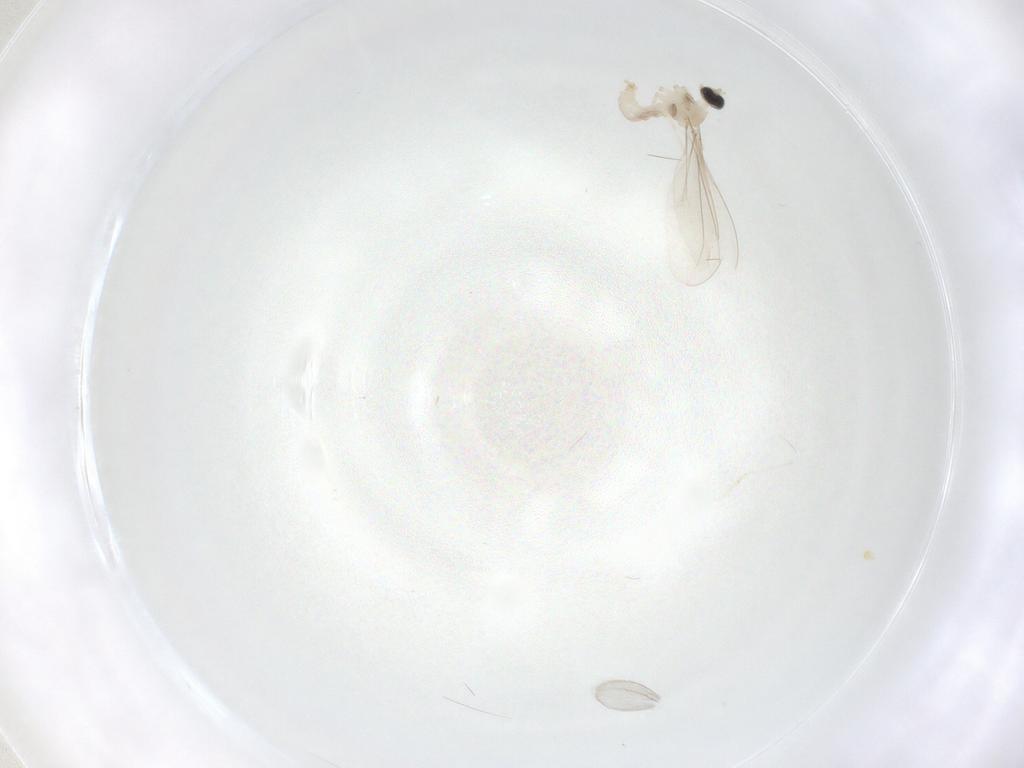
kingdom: Animalia
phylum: Arthropoda
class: Insecta
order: Diptera
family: Cecidomyiidae
